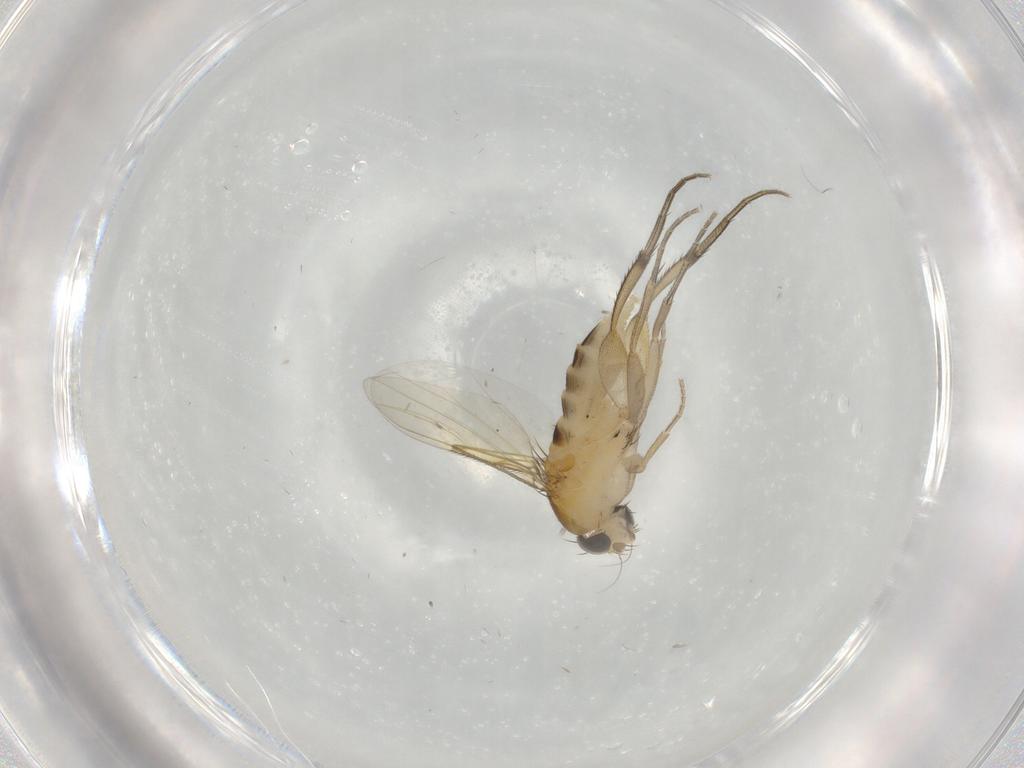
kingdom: Animalia
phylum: Arthropoda
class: Insecta
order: Diptera
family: Phoridae
